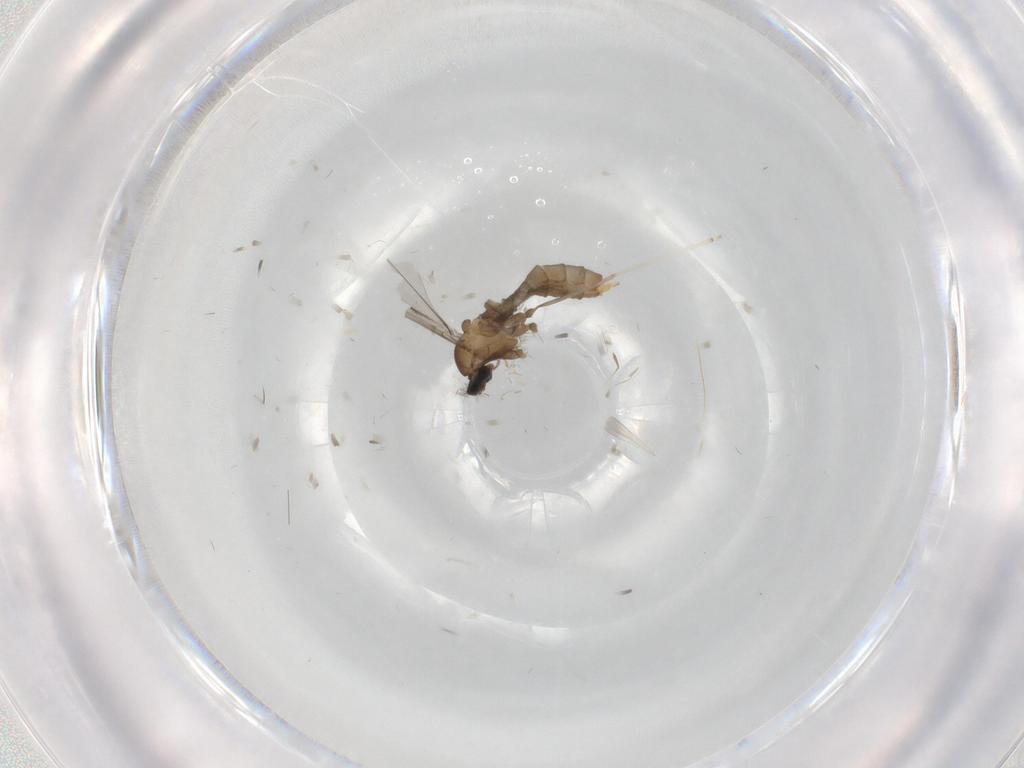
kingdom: Animalia
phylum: Arthropoda
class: Insecta
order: Diptera
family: Cecidomyiidae
